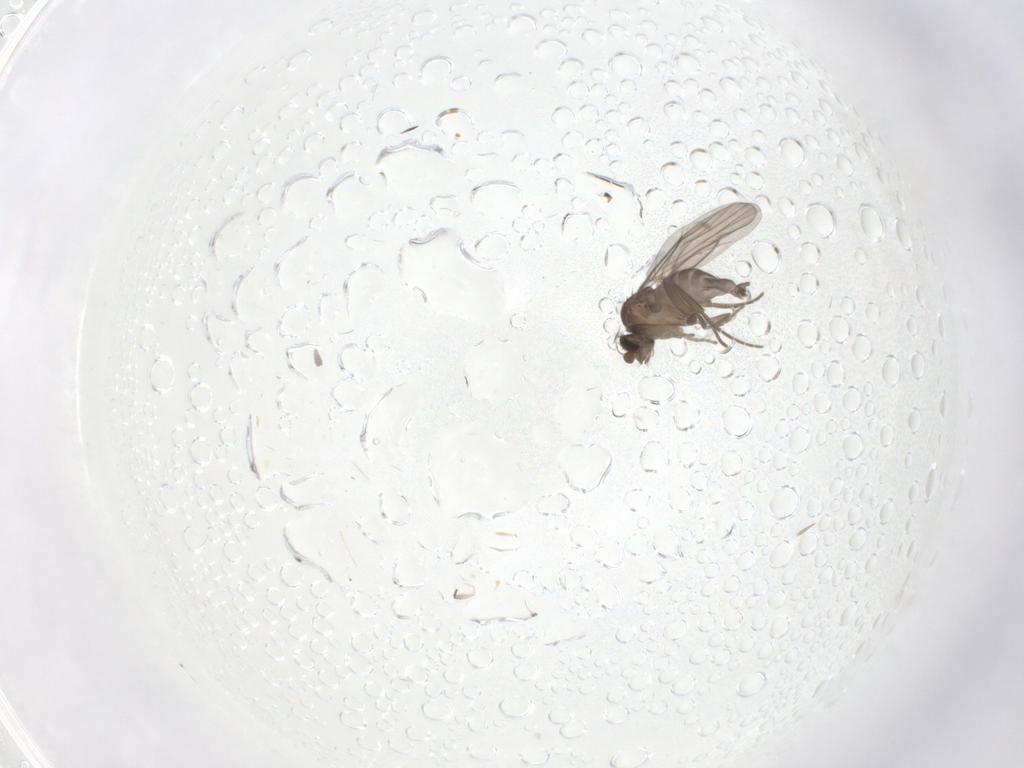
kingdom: Animalia
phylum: Arthropoda
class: Insecta
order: Diptera
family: Phoridae
